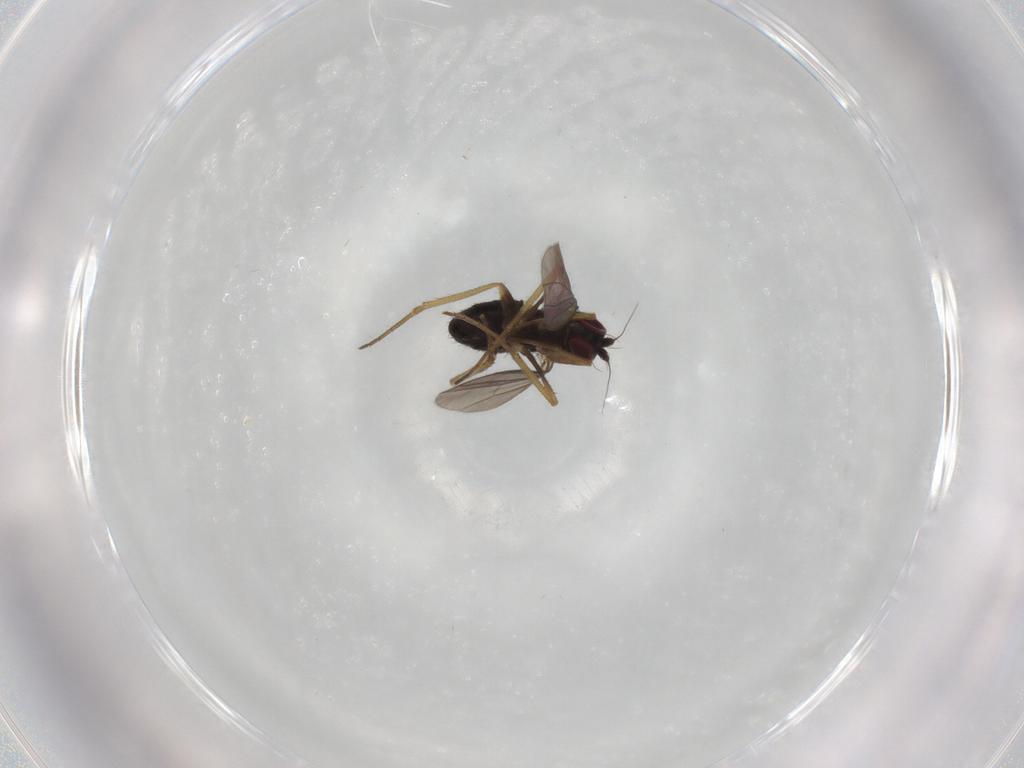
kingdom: Animalia
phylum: Arthropoda
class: Insecta
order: Diptera
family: Dolichopodidae
